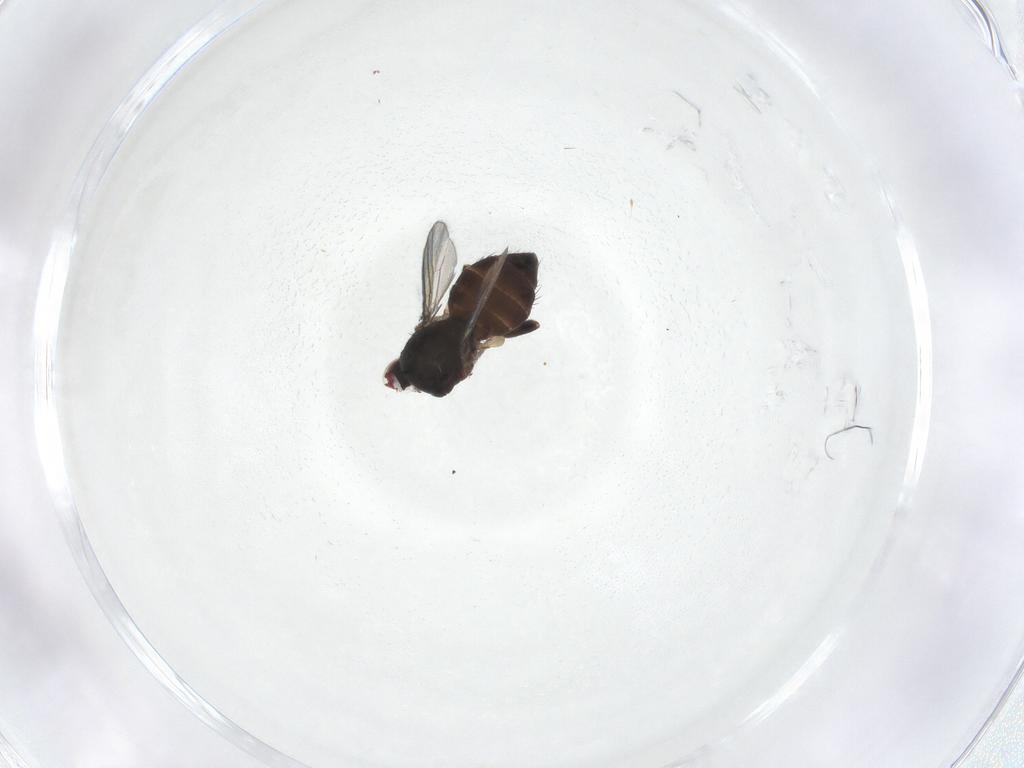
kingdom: Animalia
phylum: Arthropoda
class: Insecta
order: Diptera
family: Milichiidae
